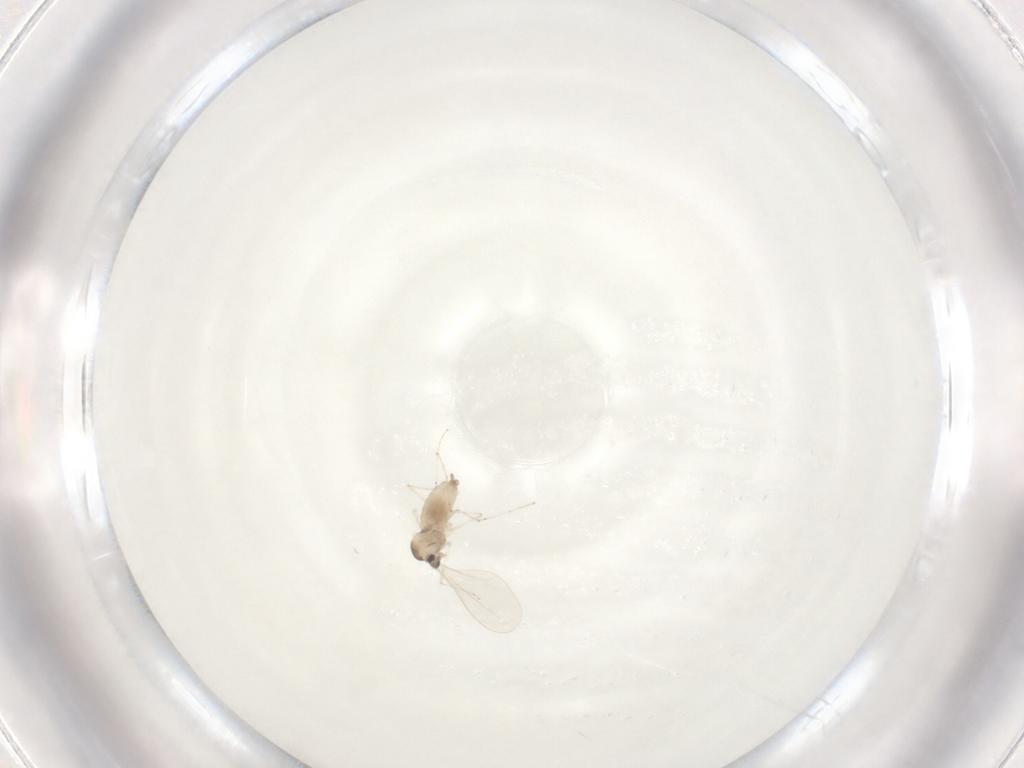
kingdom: Animalia
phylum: Arthropoda
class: Insecta
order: Diptera
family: Cecidomyiidae
